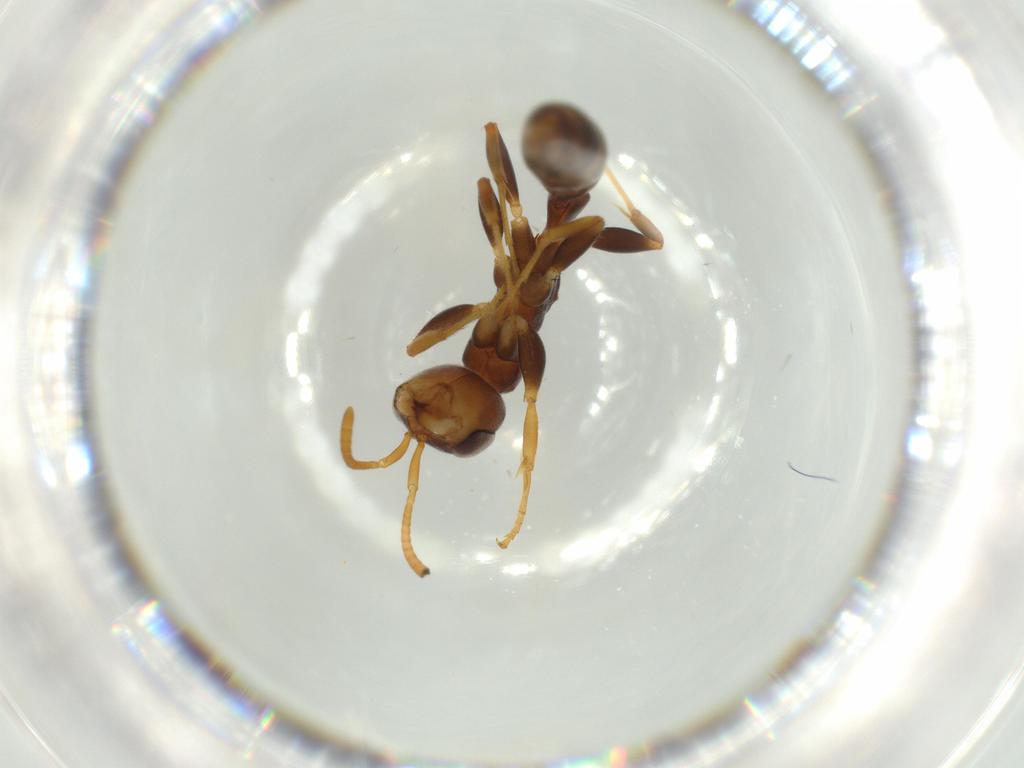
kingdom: Animalia
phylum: Arthropoda
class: Insecta
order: Hymenoptera
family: Formicidae
